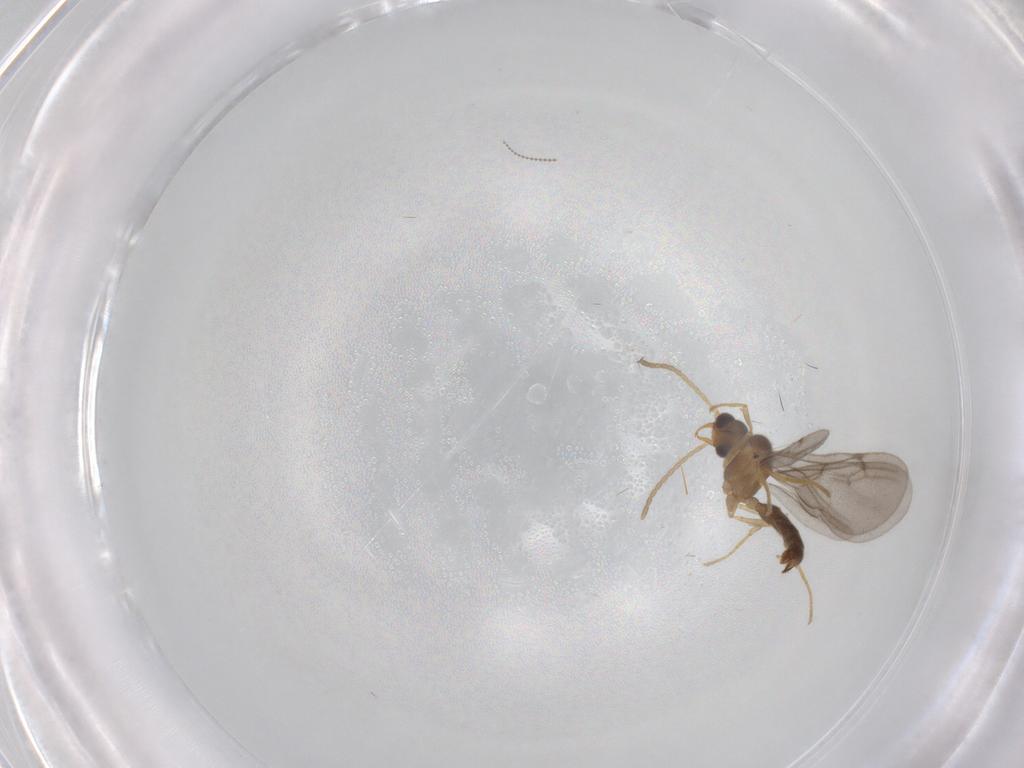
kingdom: Animalia
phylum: Arthropoda
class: Insecta
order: Hymenoptera
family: Formicidae
